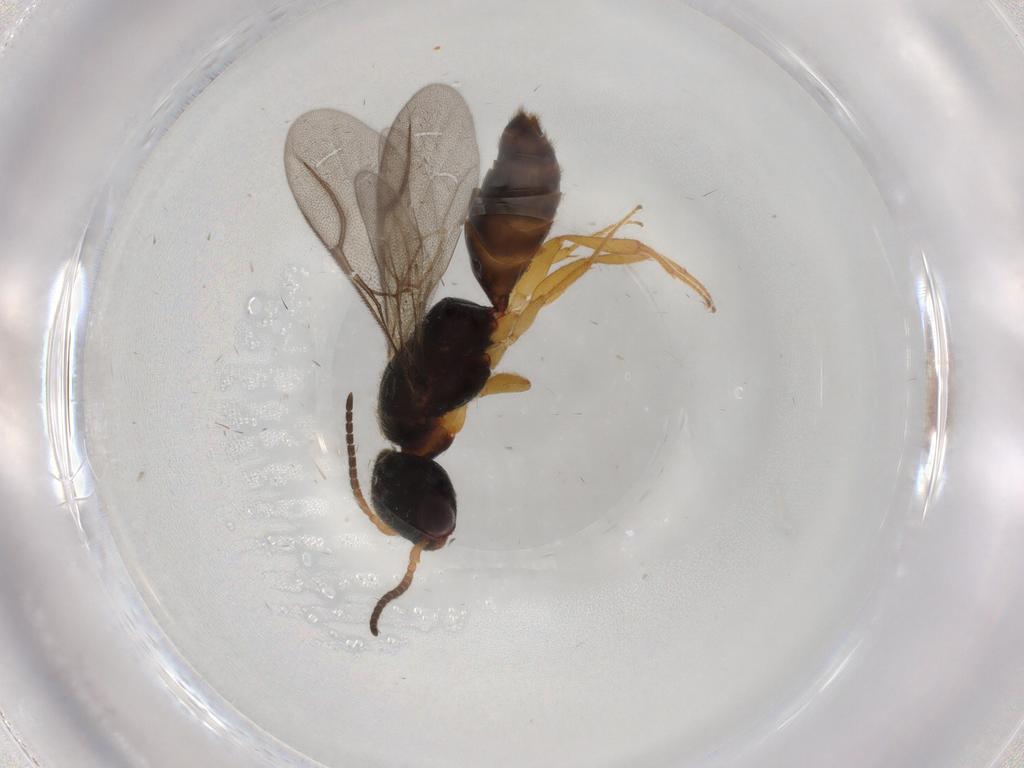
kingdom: Animalia
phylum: Arthropoda
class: Insecta
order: Hymenoptera
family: Bethylidae
